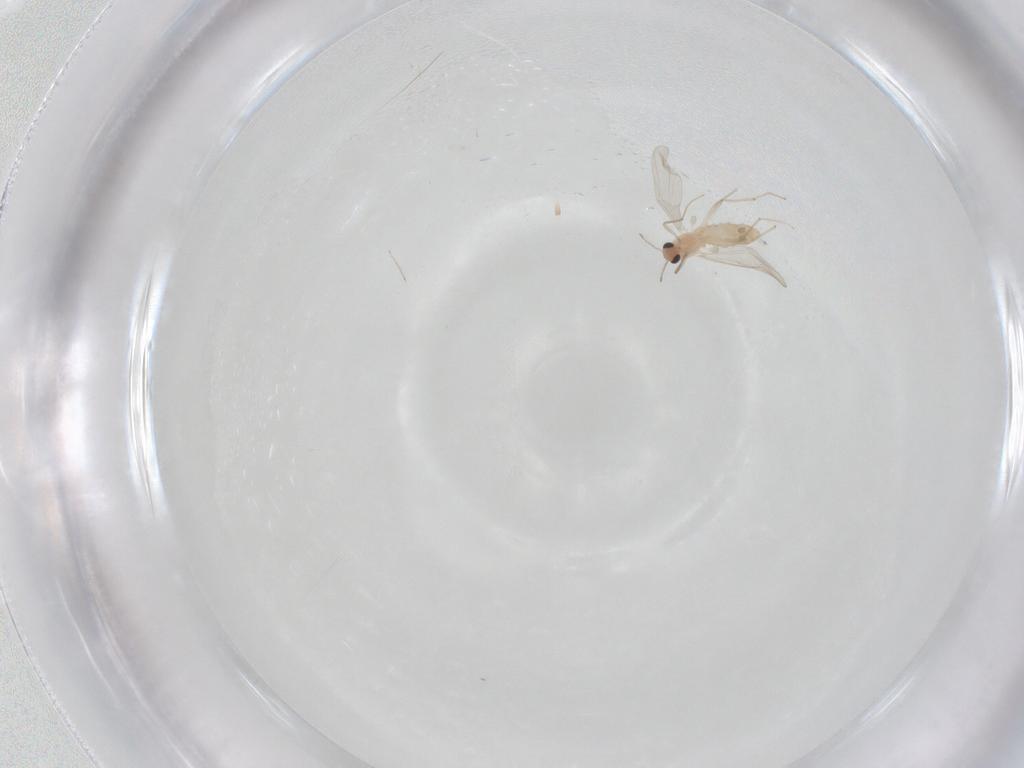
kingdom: Animalia
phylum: Arthropoda
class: Insecta
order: Diptera
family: Chironomidae
